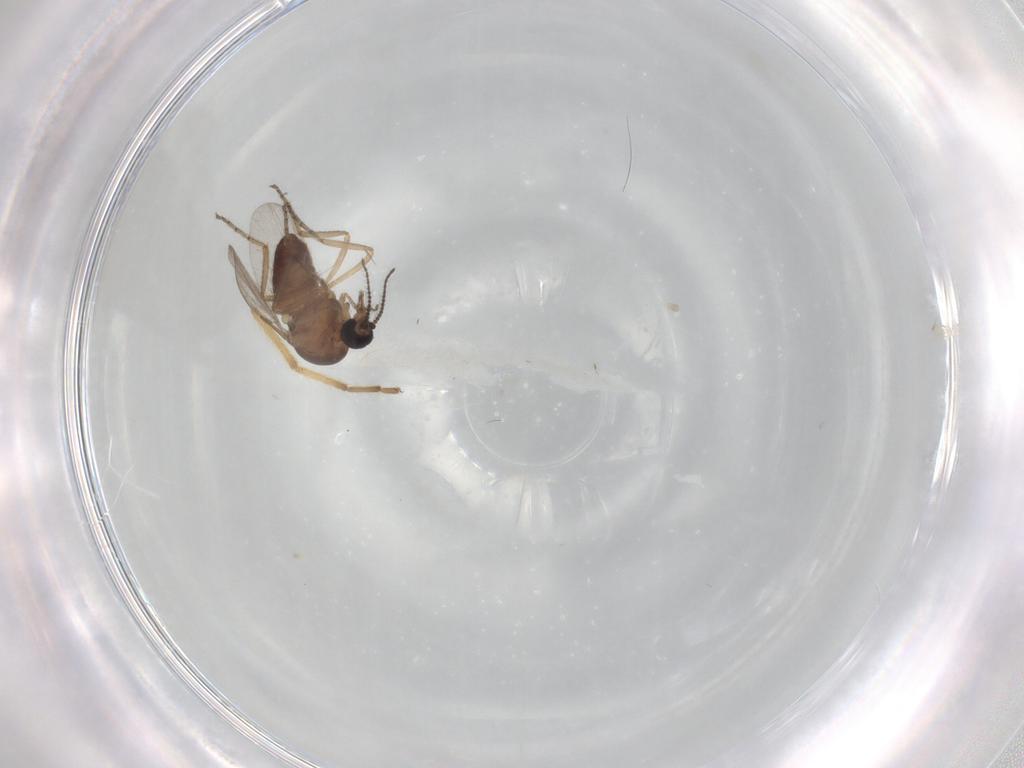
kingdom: Animalia
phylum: Arthropoda
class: Insecta
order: Diptera
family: Ceratopogonidae
